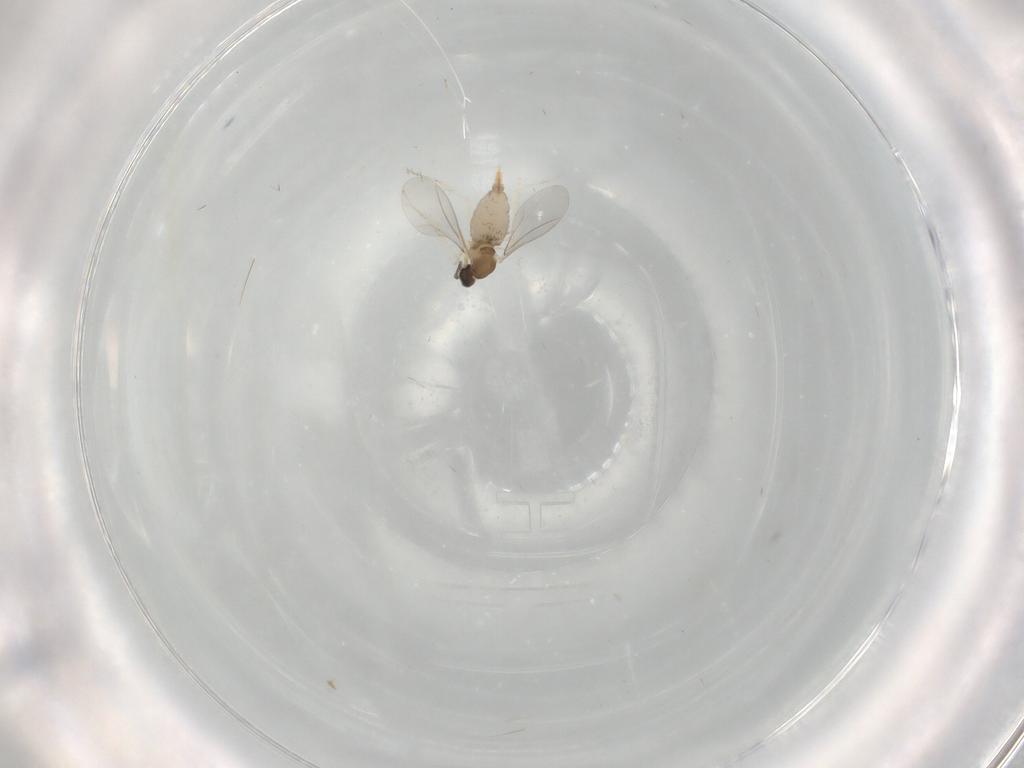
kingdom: Animalia
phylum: Arthropoda
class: Insecta
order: Diptera
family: Cecidomyiidae
